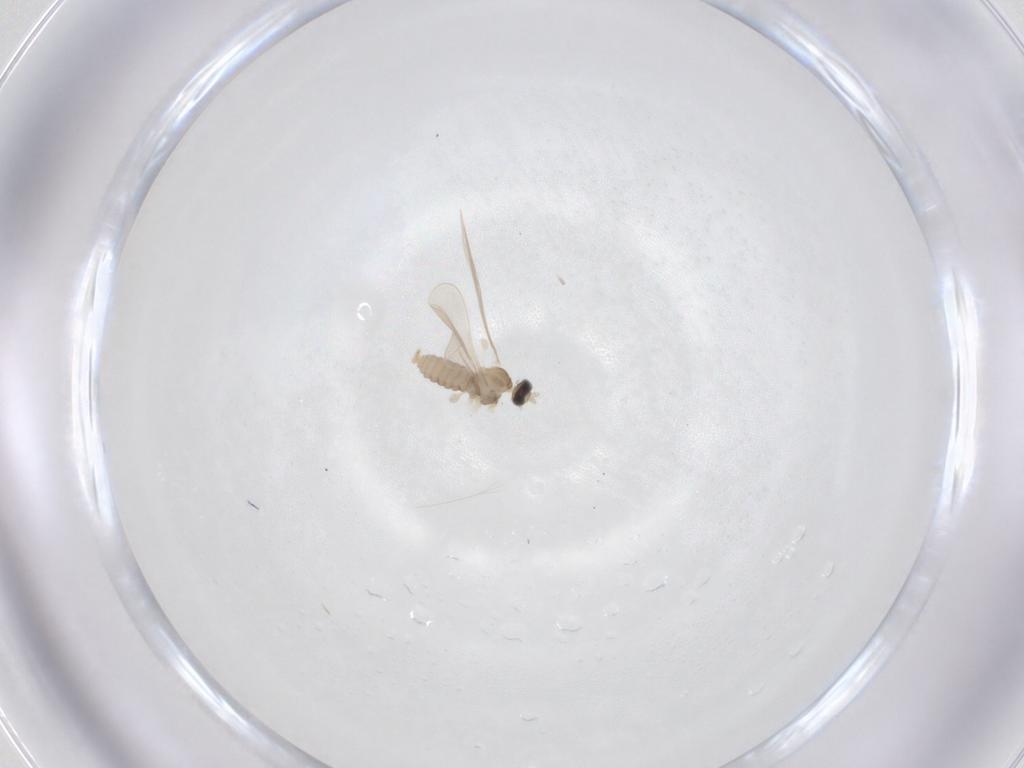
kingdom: Animalia
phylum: Arthropoda
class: Insecta
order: Diptera
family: Cecidomyiidae
